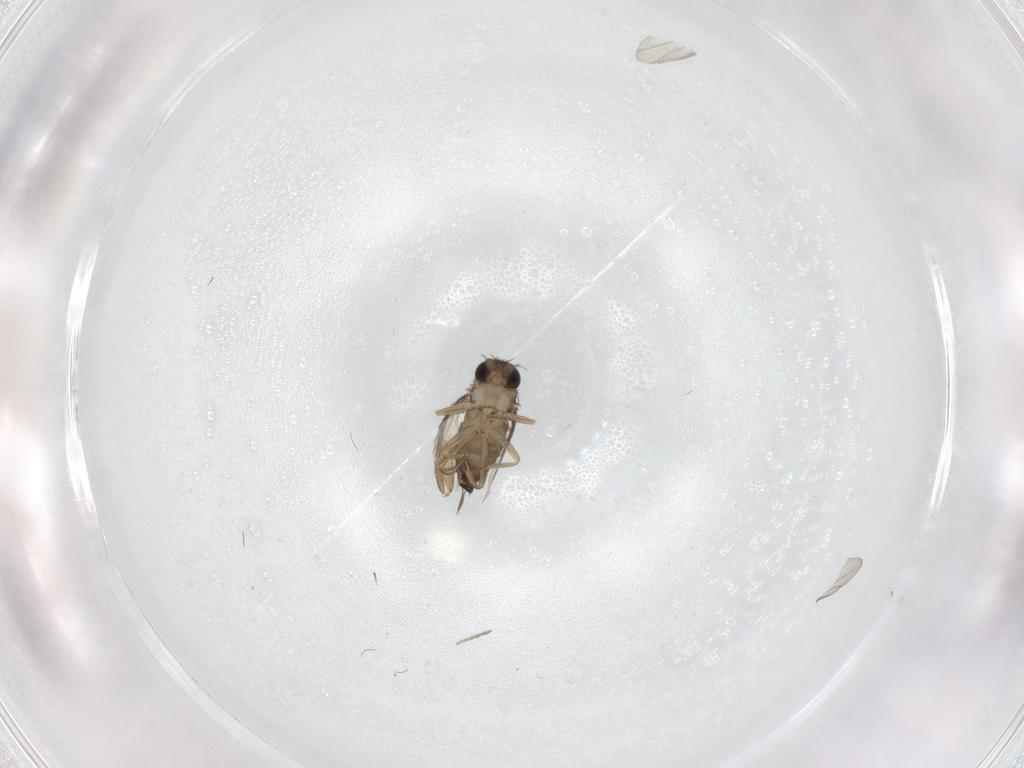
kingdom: Animalia
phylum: Arthropoda
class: Insecta
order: Diptera
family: Phoridae
